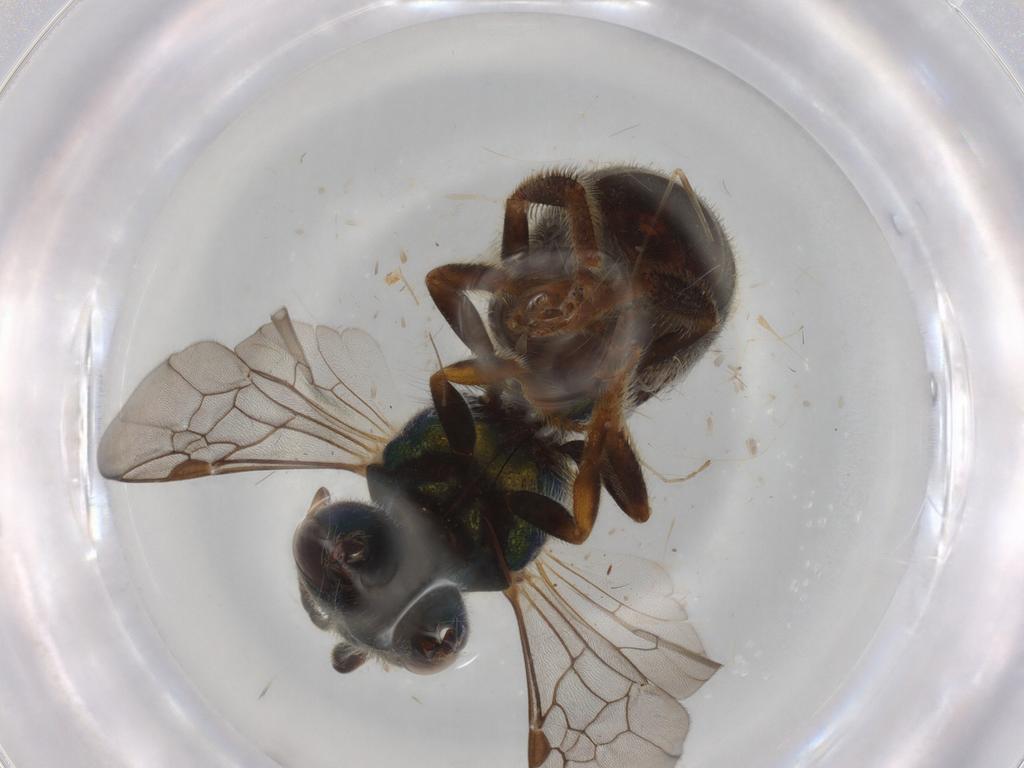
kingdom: Animalia
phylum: Arthropoda
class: Insecta
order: Hymenoptera
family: Halictidae
